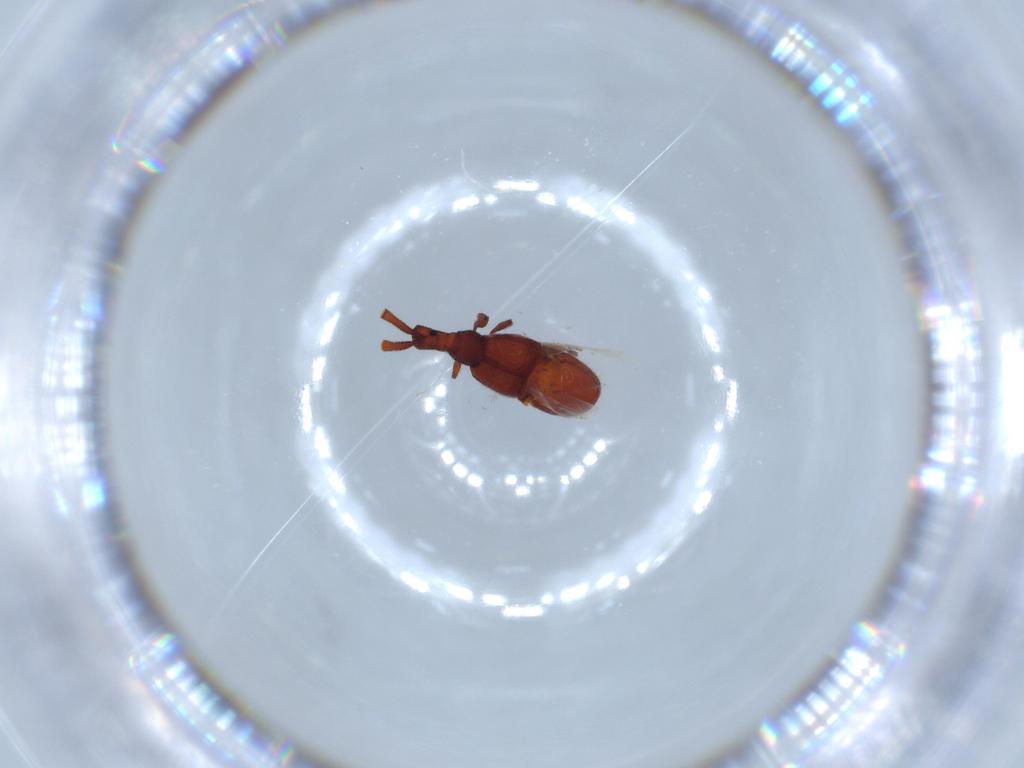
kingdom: Animalia
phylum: Arthropoda
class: Insecta
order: Coleoptera
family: Staphylinidae
